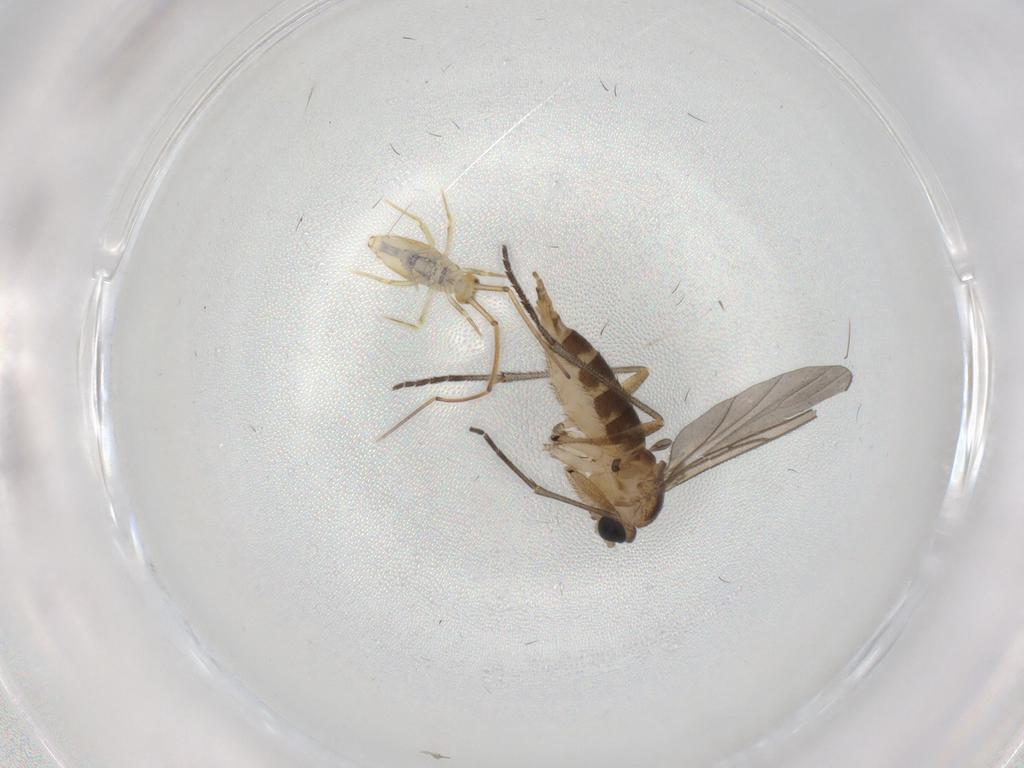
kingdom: Animalia
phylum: Arthropoda
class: Insecta
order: Diptera
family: Sciaridae
